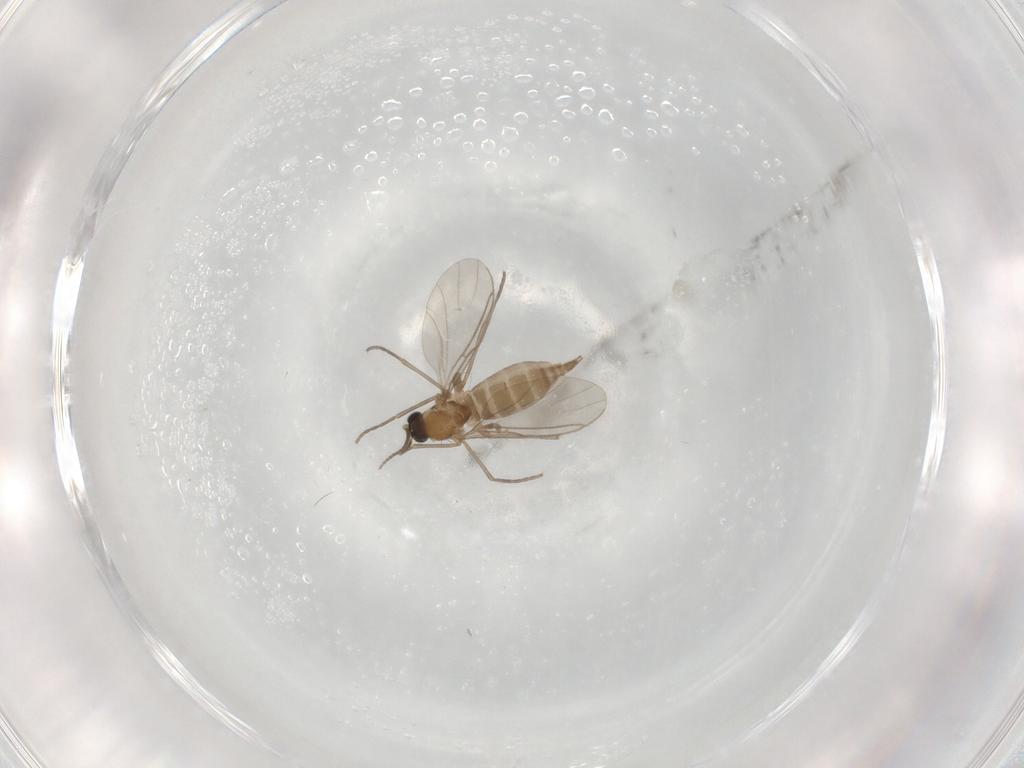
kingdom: Animalia
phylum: Arthropoda
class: Insecta
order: Diptera
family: Sciaridae
